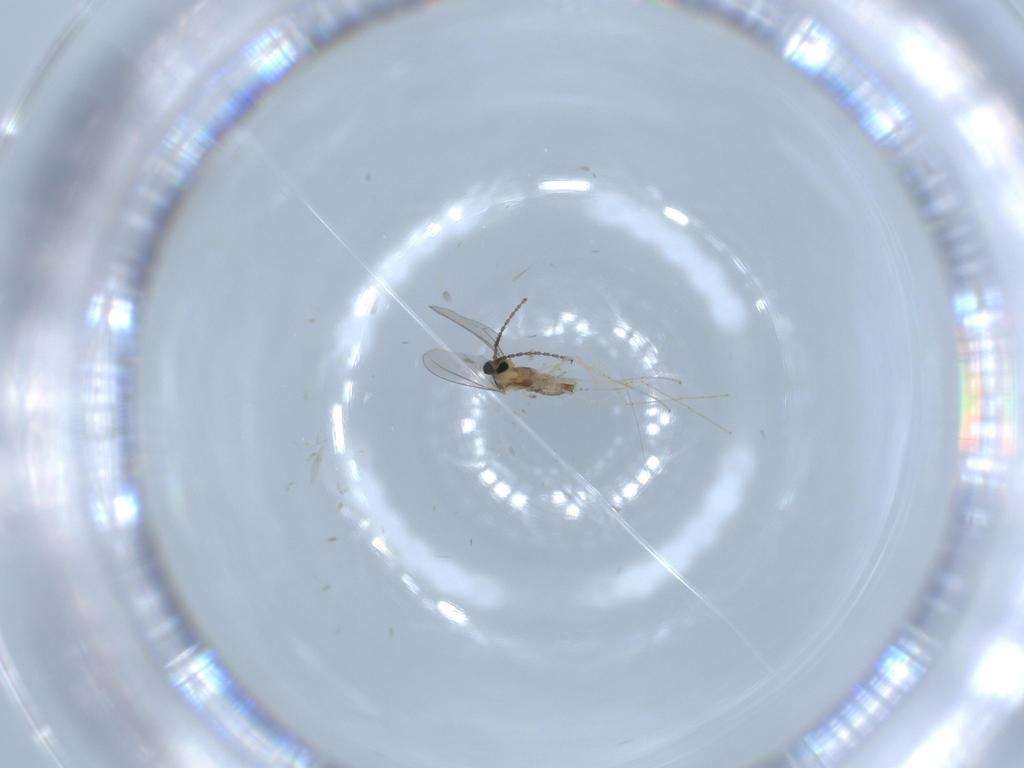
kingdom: Animalia
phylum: Arthropoda
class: Insecta
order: Diptera
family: Cecidomyiidae
